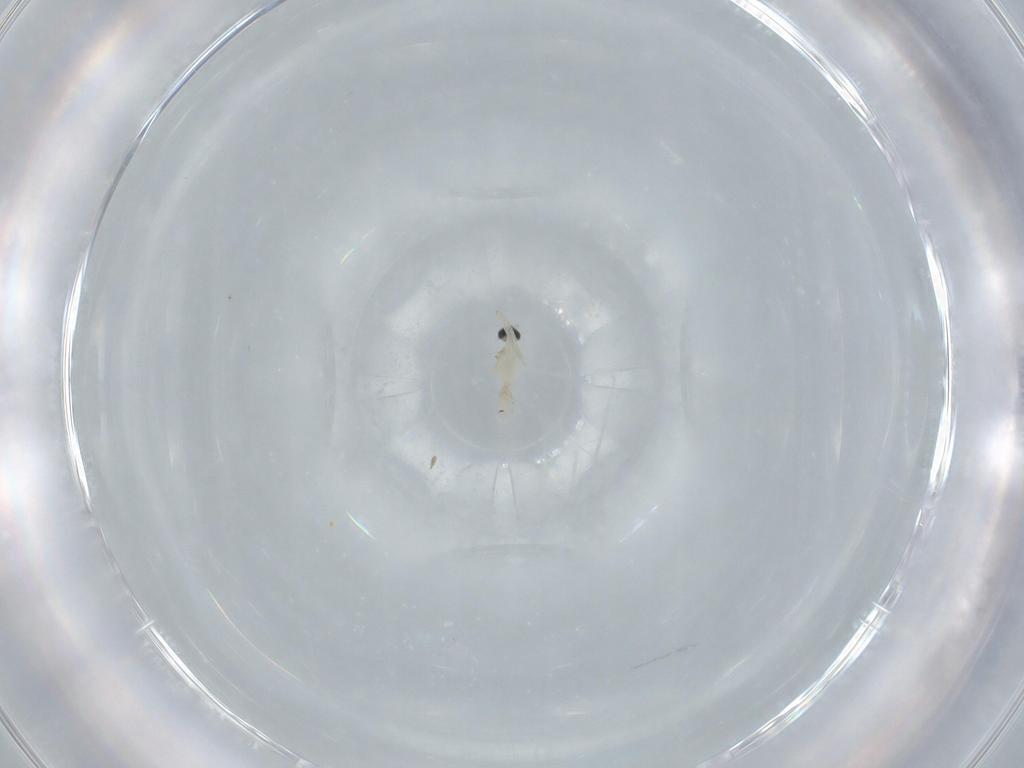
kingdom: Animalia
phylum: Arthropoda
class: Insecta
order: Diptera
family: Cecidomyiidae
